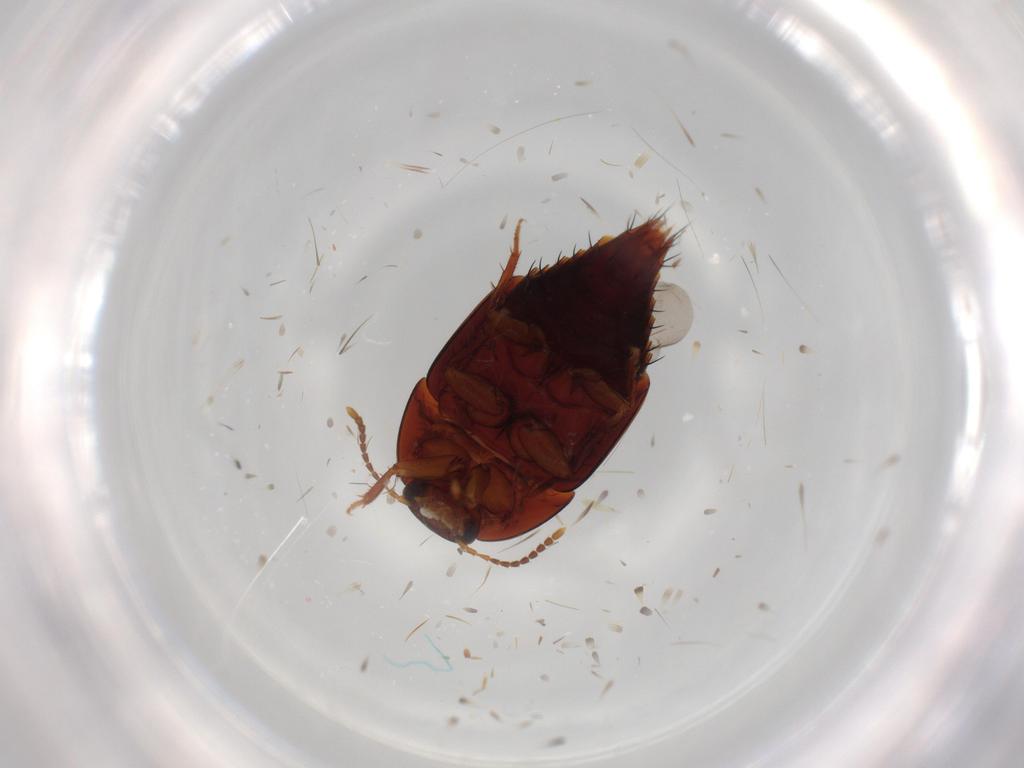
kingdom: Animalia
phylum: Arthropoda
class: Insecta
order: Coleoptera
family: Staphylinidae
